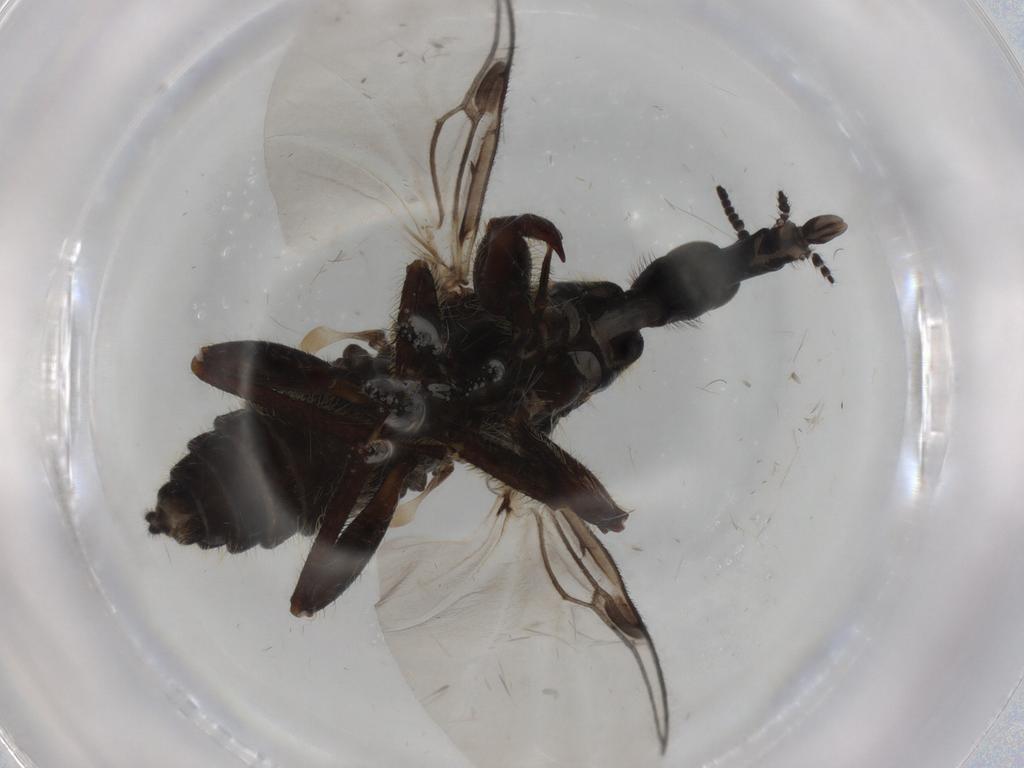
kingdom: Animalia
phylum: Arthropoda
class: Insecta
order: Diptera
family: Bibionidae
